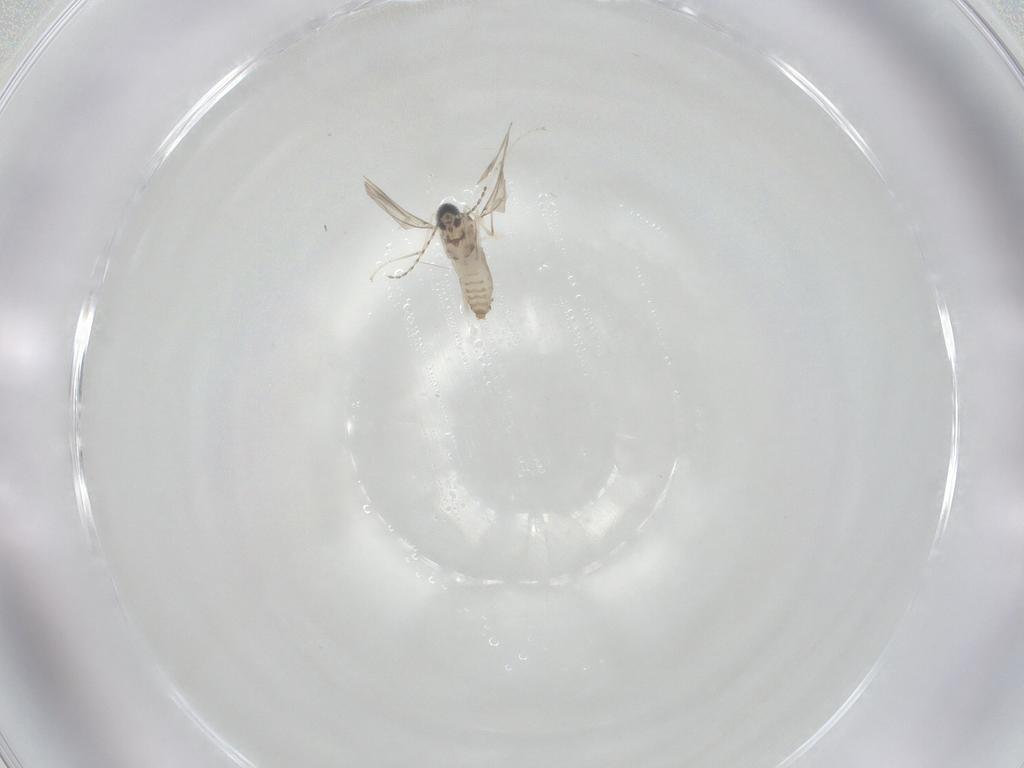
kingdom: Animalia
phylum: Arthropoda
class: Insecta
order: Diptera
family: Cecidomyiidae
